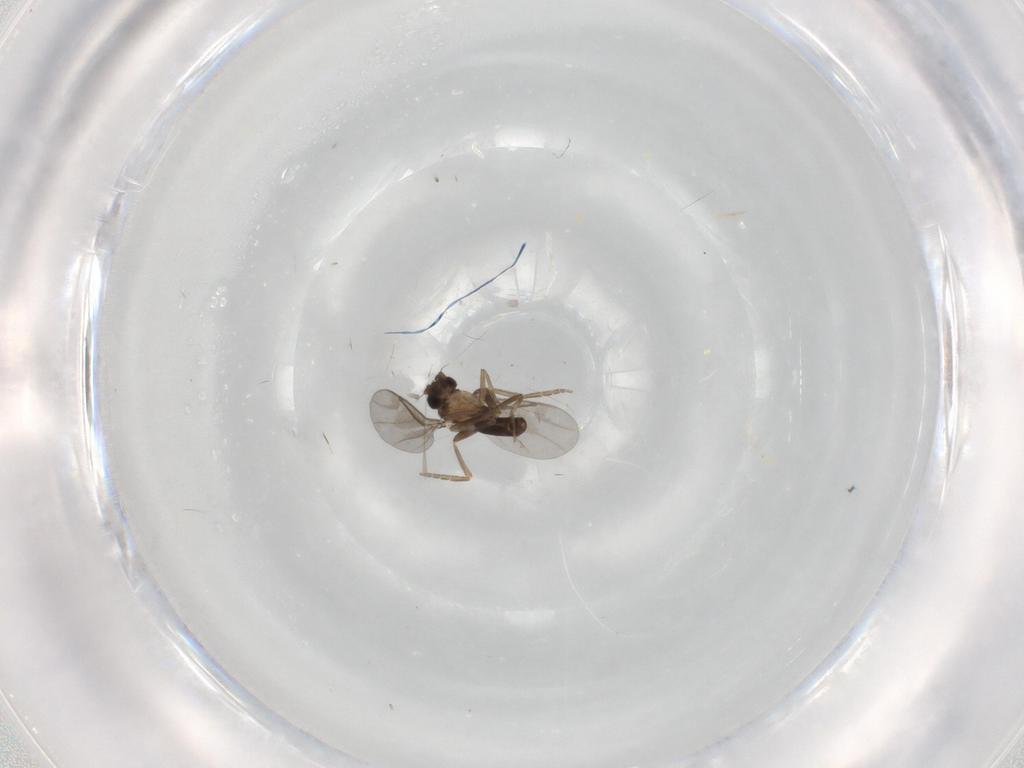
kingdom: Animalia
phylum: Arthropoda
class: Insecta
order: Diptera
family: Phoridae
